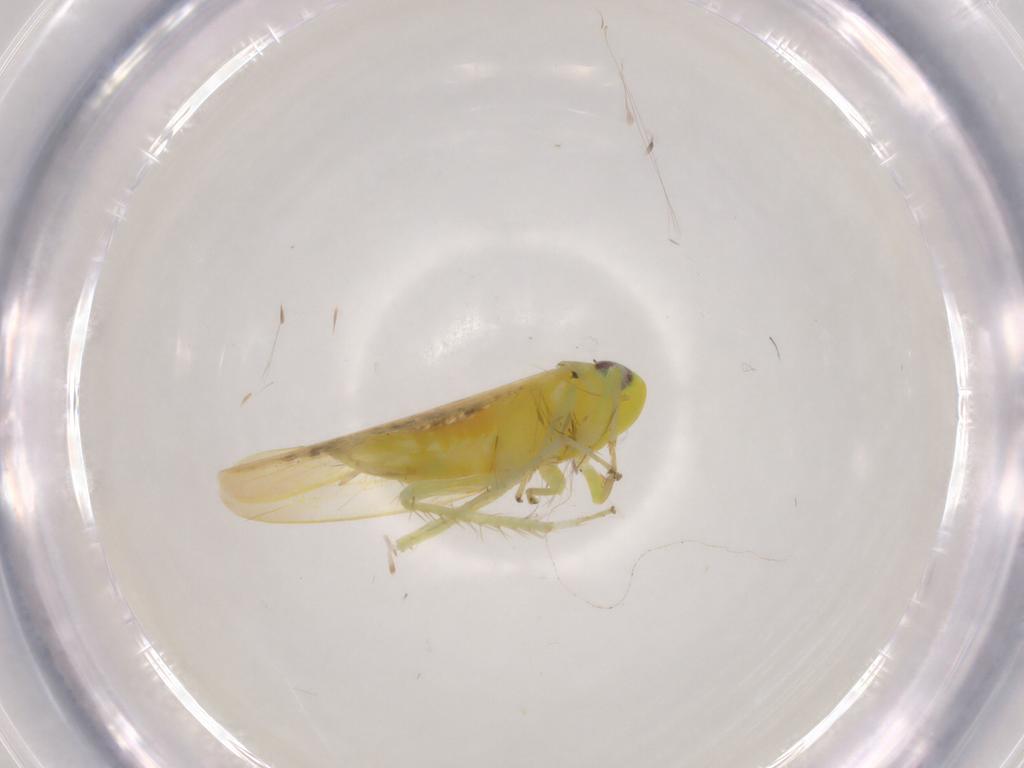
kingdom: Animalia
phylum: Arthropoda
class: Insecta
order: Hemiptera
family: Cicadellidae
